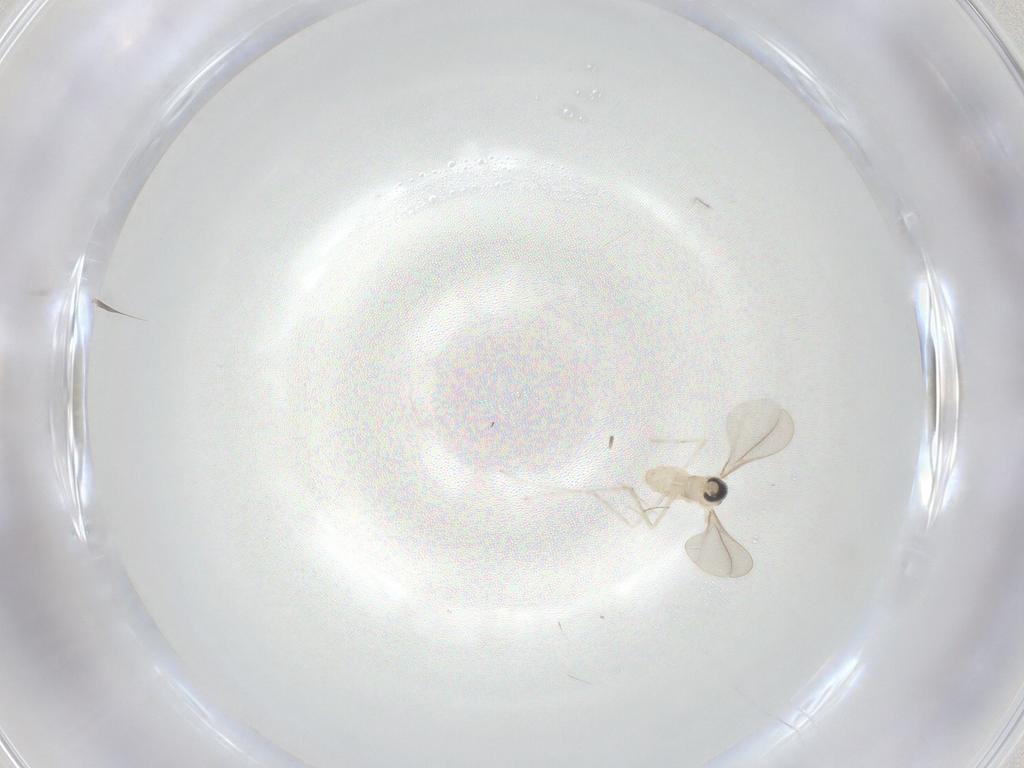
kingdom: Animalia
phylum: Arthropoda
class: Insecta
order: Diptera
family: Cecidomyiidae
